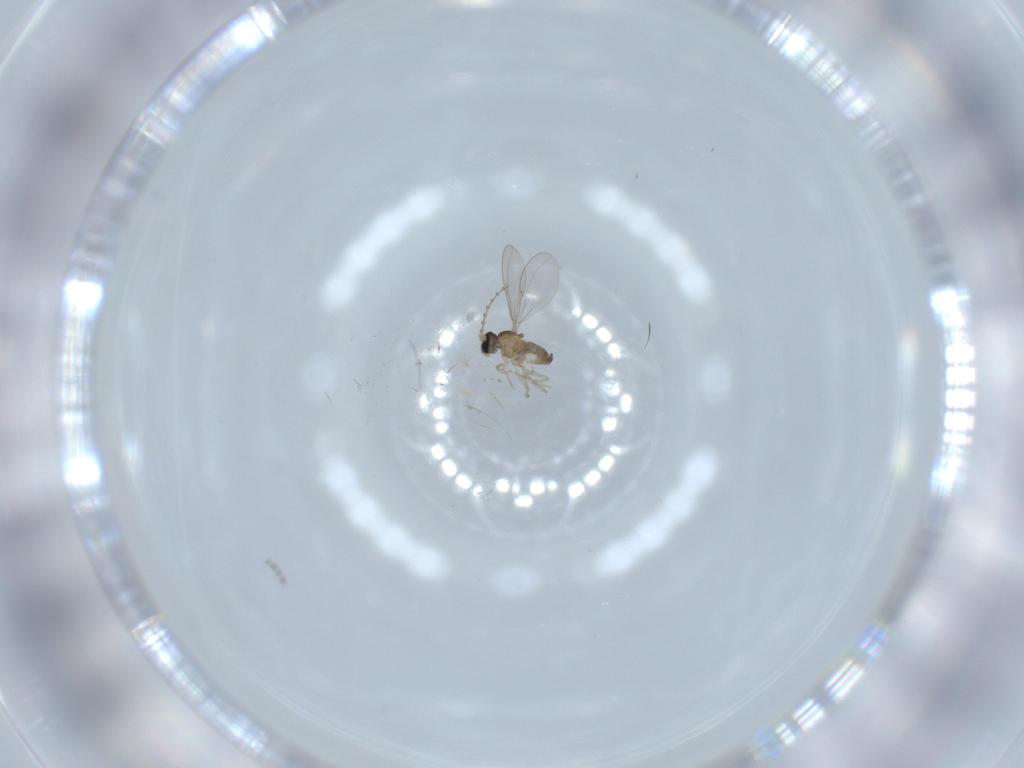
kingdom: Animalia
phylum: Arthropoda
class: Insecta
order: Diptera
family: Cecidomyiidae
